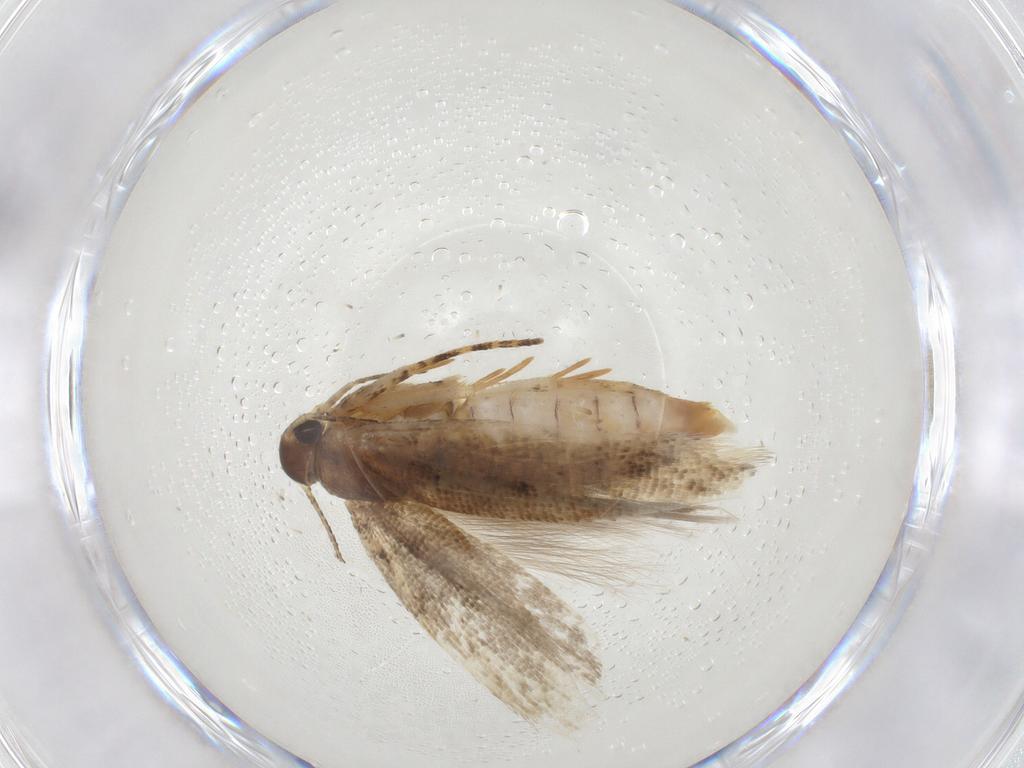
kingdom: Animalia
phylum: Arthropoda
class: Insecta
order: Lepidoptera
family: Gelechiidae
